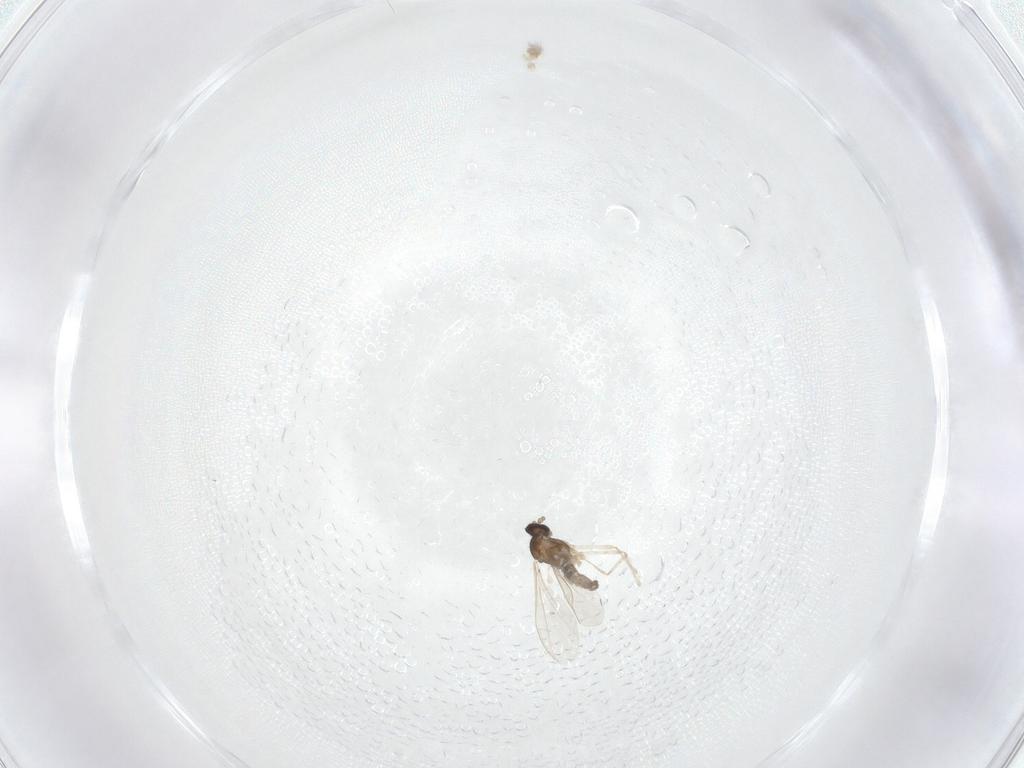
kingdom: Animalia
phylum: Arthropoda
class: Insecta
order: Diptera
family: Cecidomyiidae
